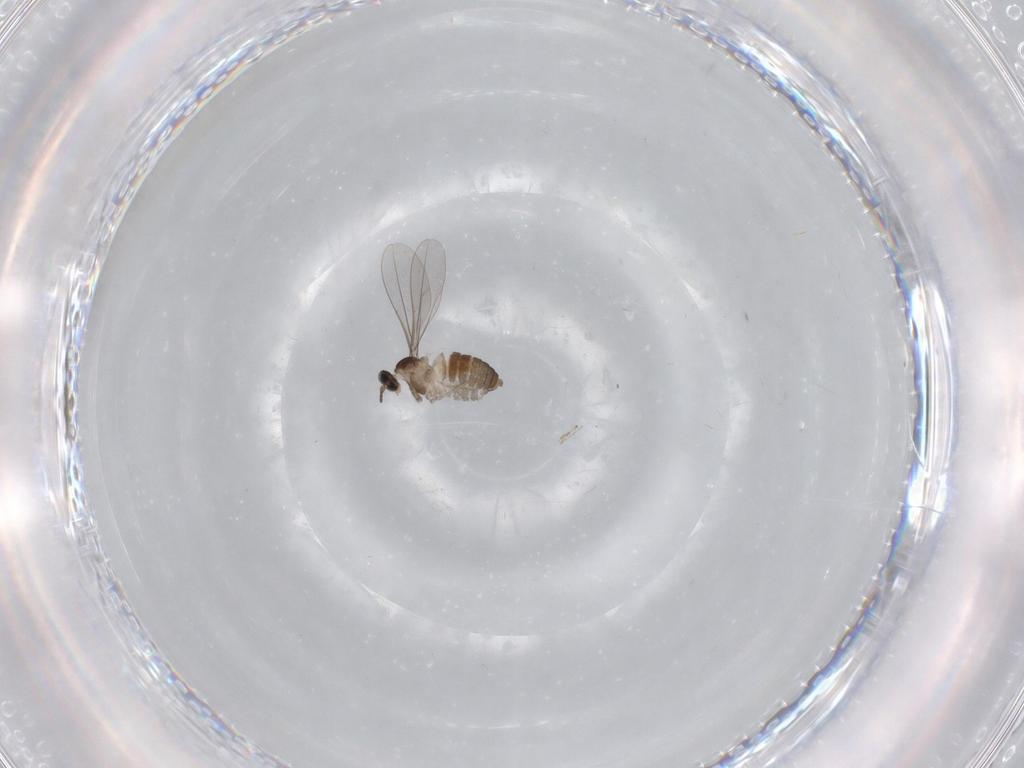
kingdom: Animalia
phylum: Arthropoda
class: Insecta
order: Diptera
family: Cecidomyiidae
